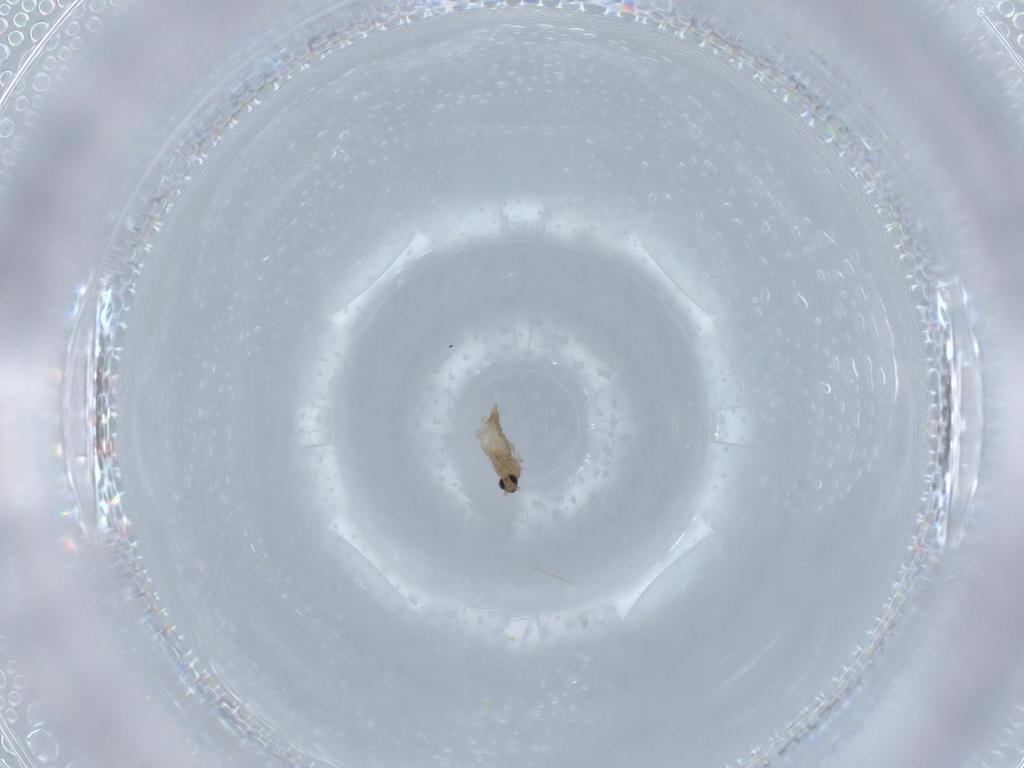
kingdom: Animalia
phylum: Arthropoda
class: Insecta
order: Diptera
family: Cecidomyiidae
